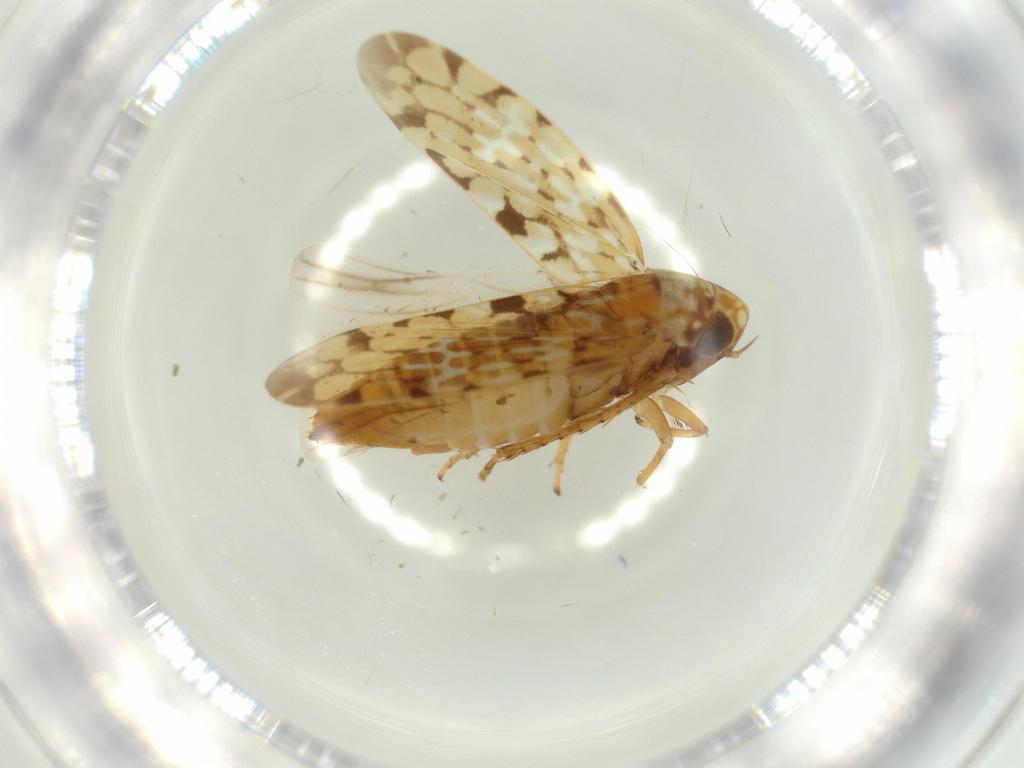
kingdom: Animalia
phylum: Arthropoda
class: Insecta
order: Hemiptera
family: Cicadellidae
